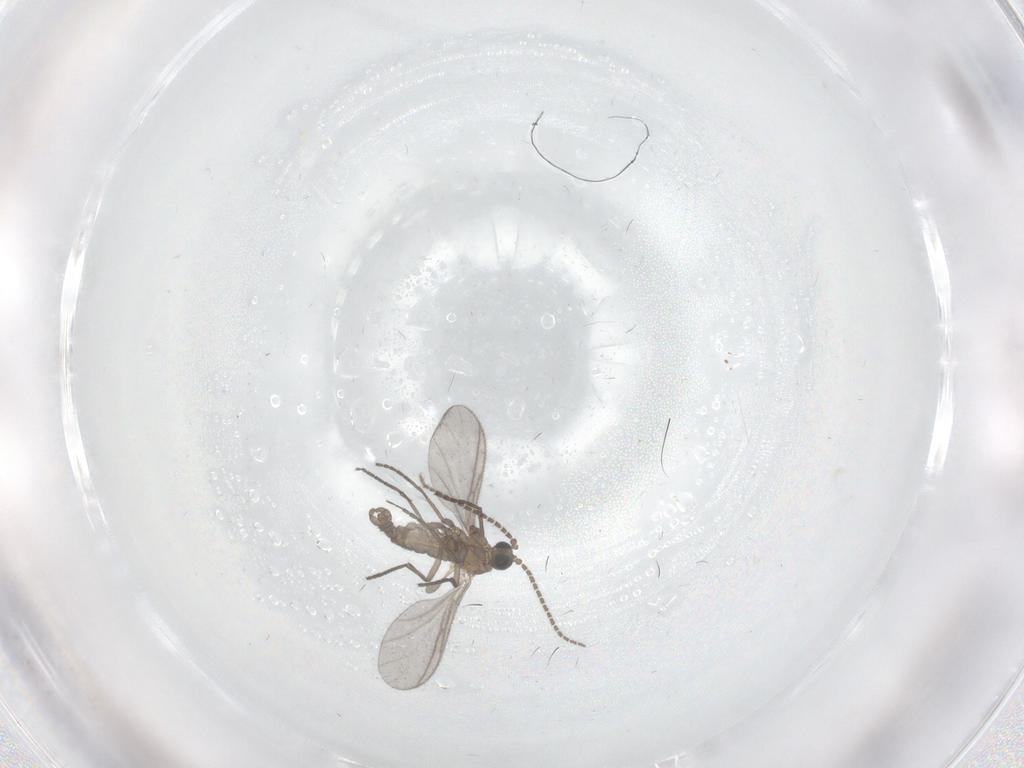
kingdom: Animalia
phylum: Arthropoda
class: Insecta
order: Diptera
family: Sciaridae
